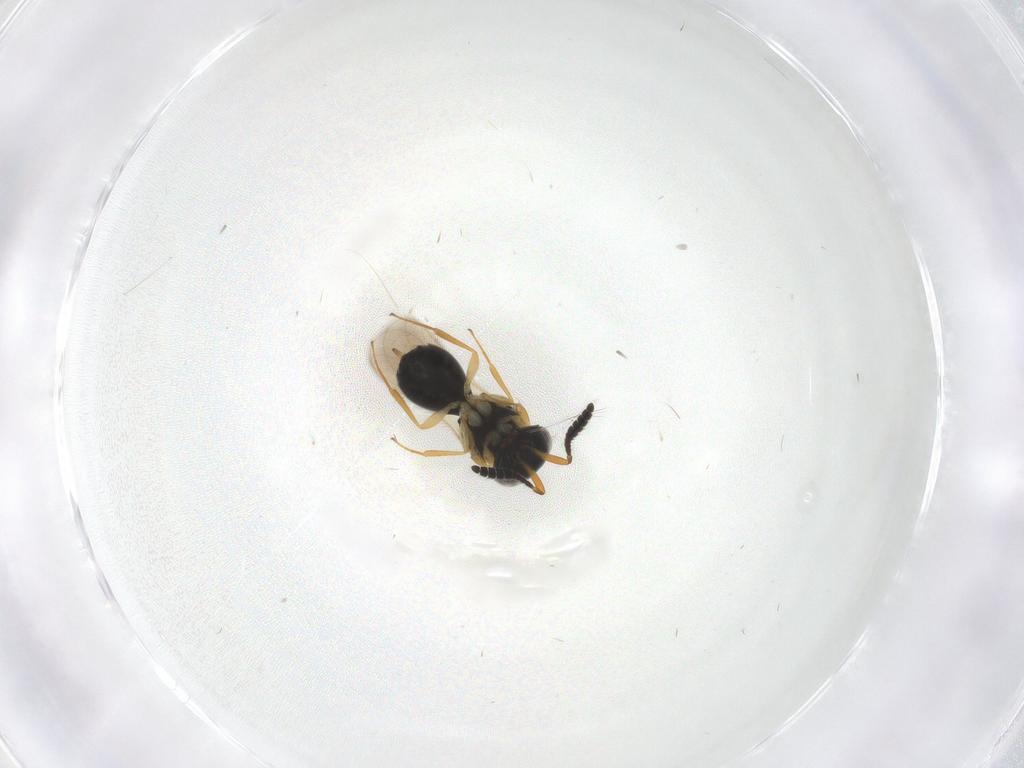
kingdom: Animalia
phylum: Arthropoda
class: Insecta
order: Hymenoptera
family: Scelionidae
